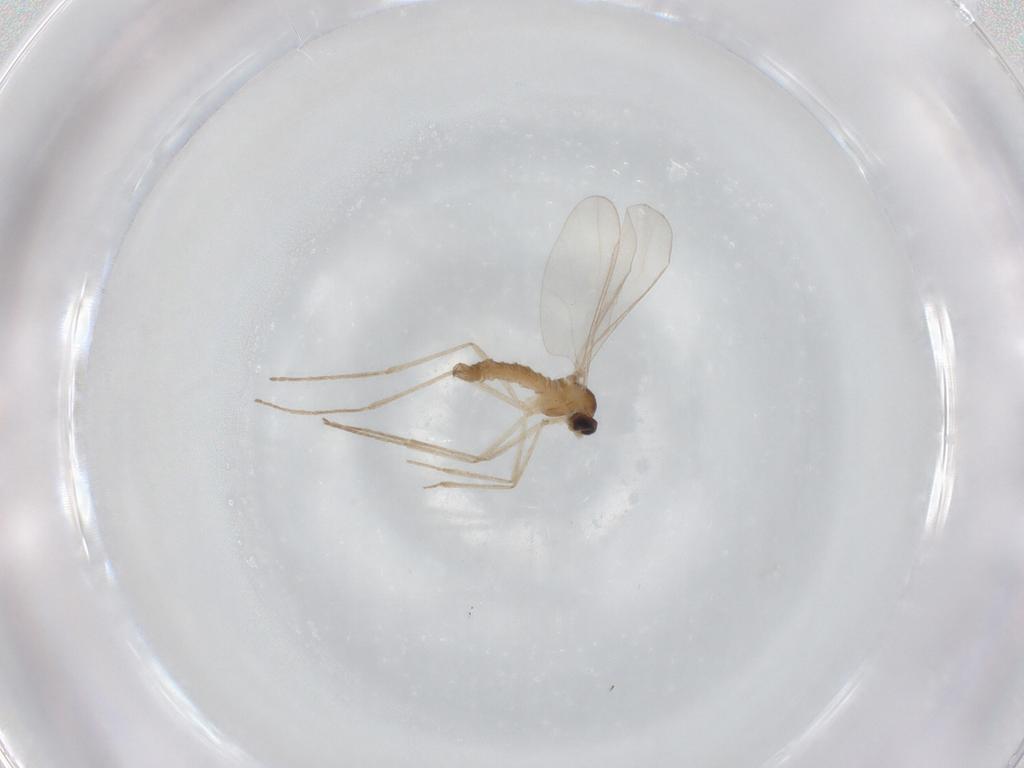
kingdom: Animalia
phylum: Arthropoda
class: Insecta
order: Diptera
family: Cecidomyiidae
